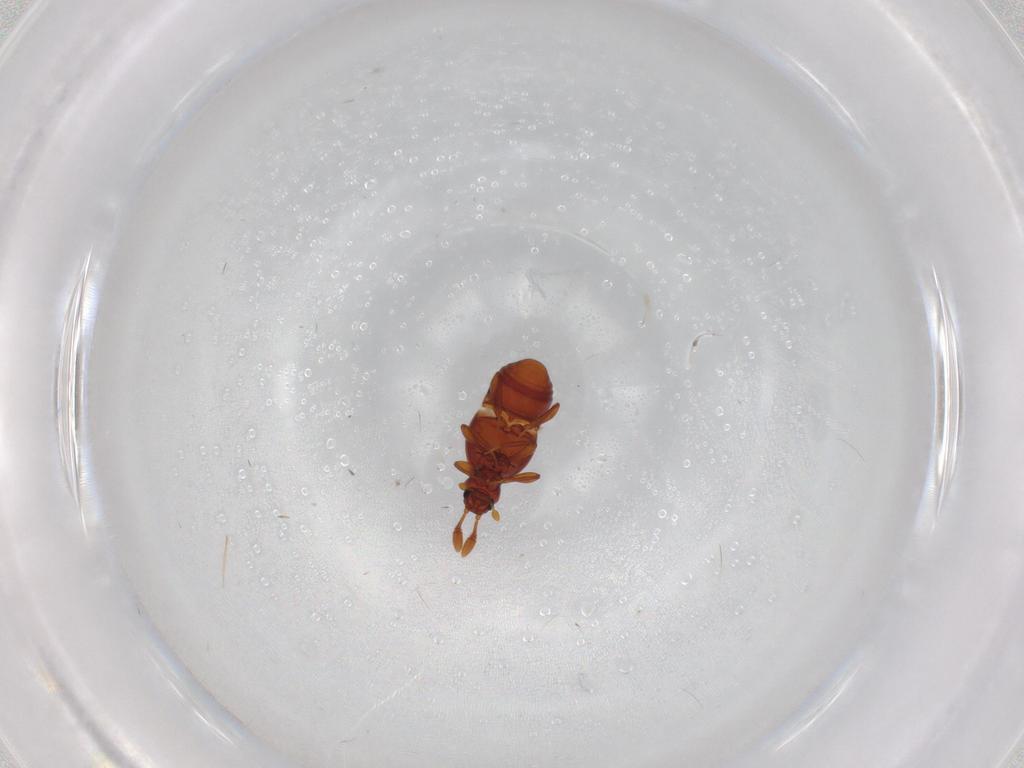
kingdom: Animalia
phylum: Arthropoda
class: Insecta
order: Coleoptera
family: Staphylinidae
